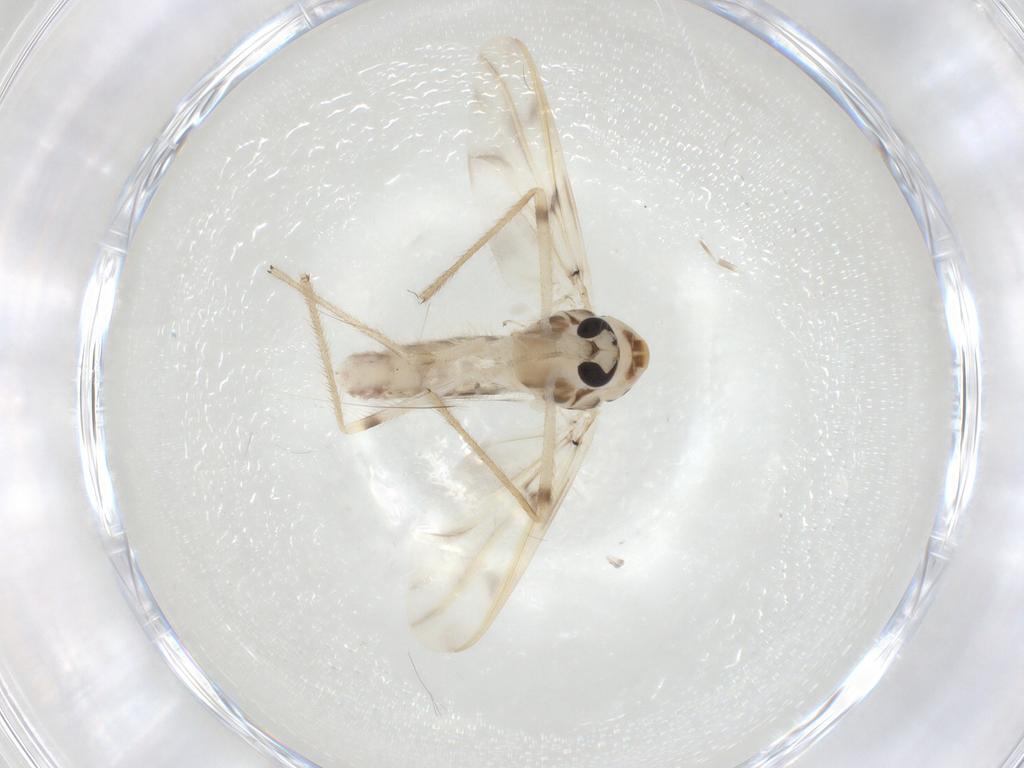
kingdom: Animalia
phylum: Arthropoda
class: Insecta
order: Diptera
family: Chironomidae
